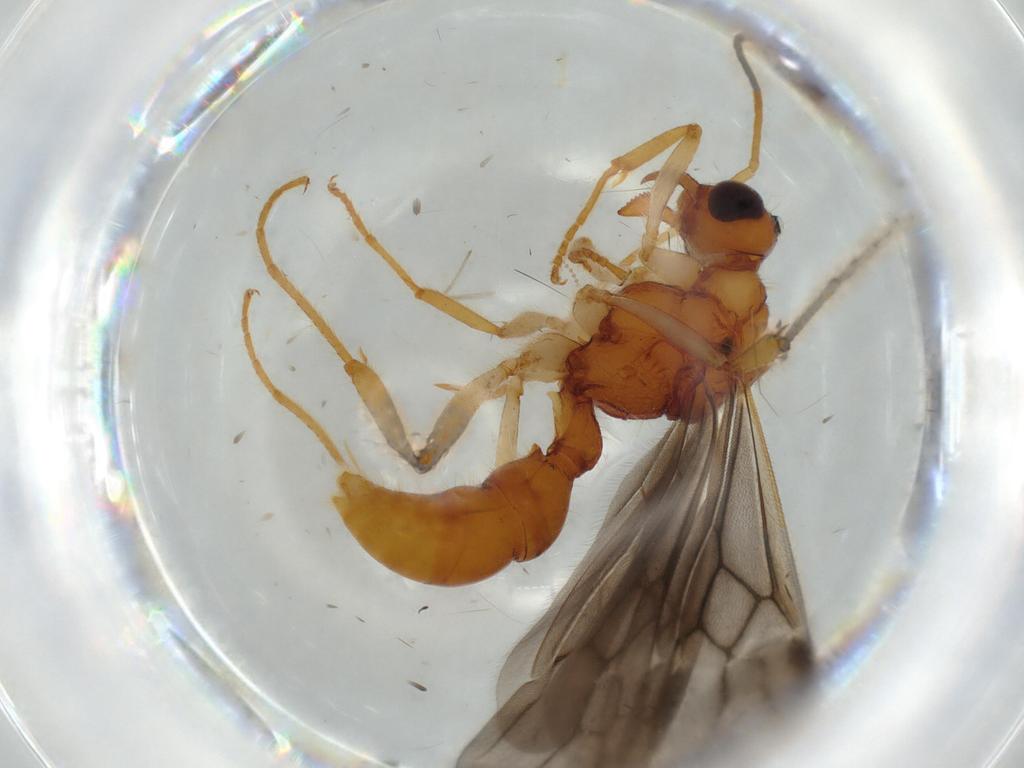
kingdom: Animalia
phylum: Arthropoda
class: Insecta
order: Hymenoptera
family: Formicidae
